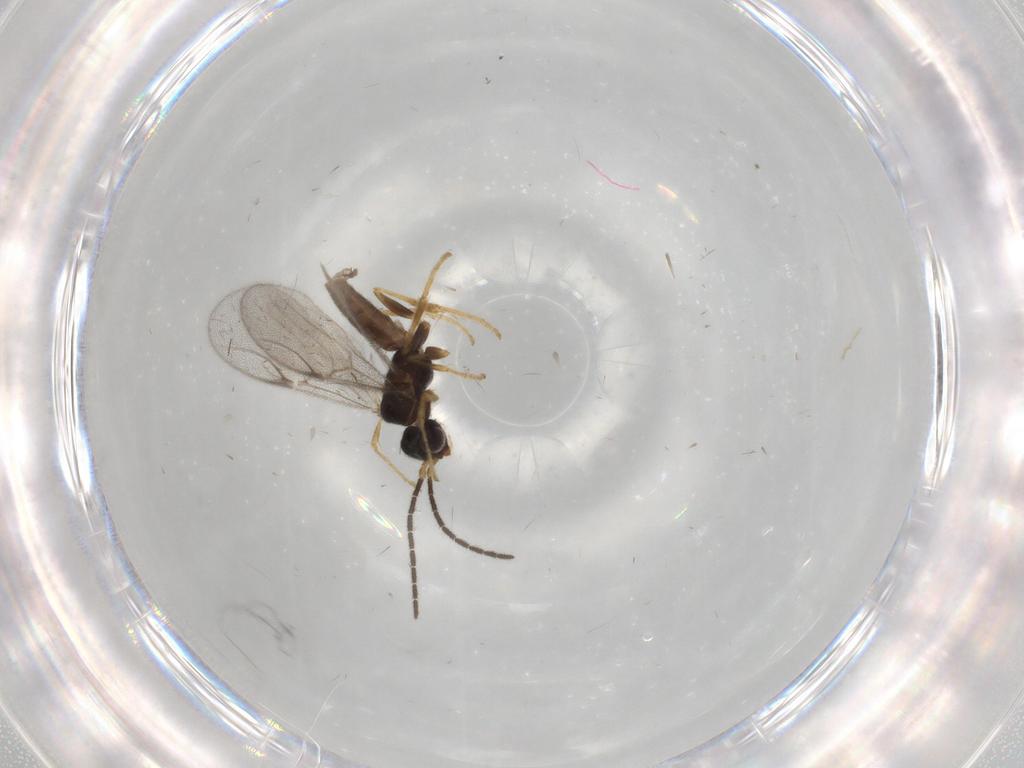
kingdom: Animalia
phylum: Arthropoda
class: Insecta
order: Hymenoptera
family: Dryinidae
